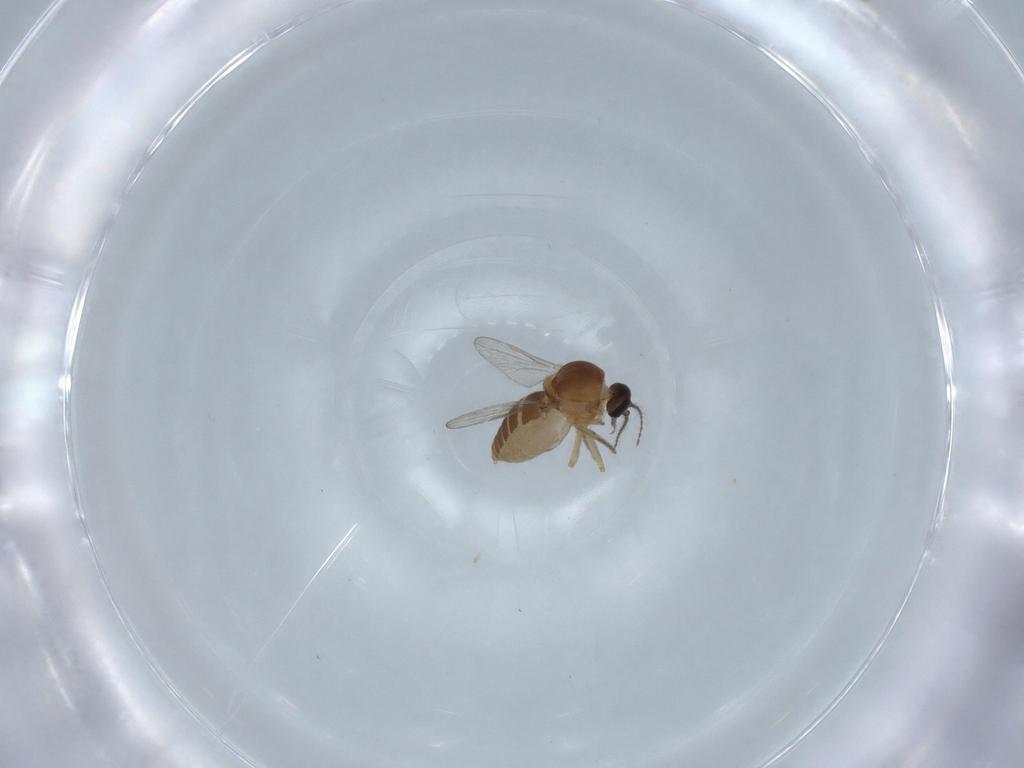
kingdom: Animalia
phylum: Arthropoda
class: Insecta
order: Diptera
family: Ceratopogonidae
